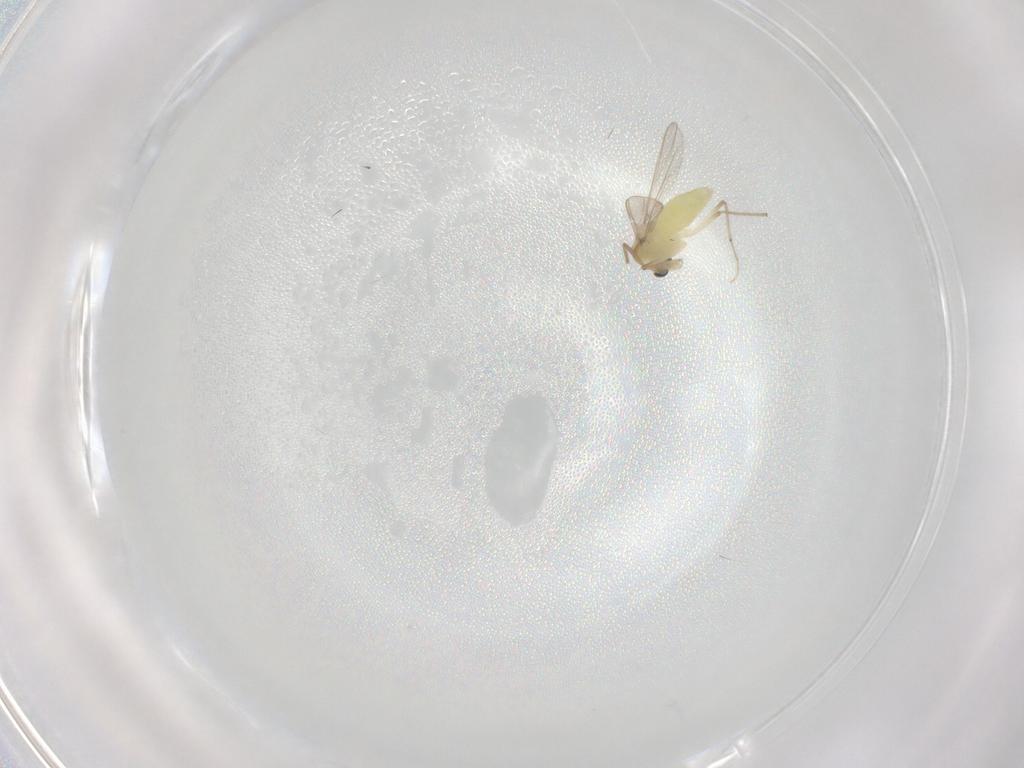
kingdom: Animalia
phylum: Arthropoda
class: Insecta
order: Diptera
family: Chironomidae
